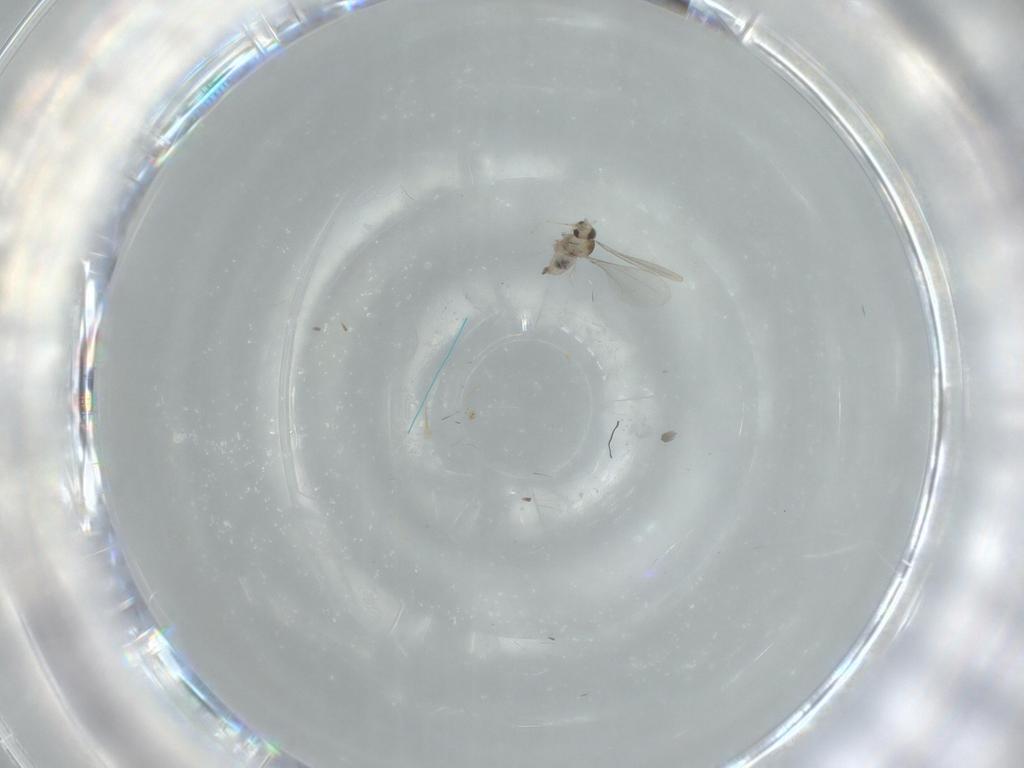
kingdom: Animalia
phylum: Arthropoda
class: Insecta
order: Diptera
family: Cecidomyiidae
